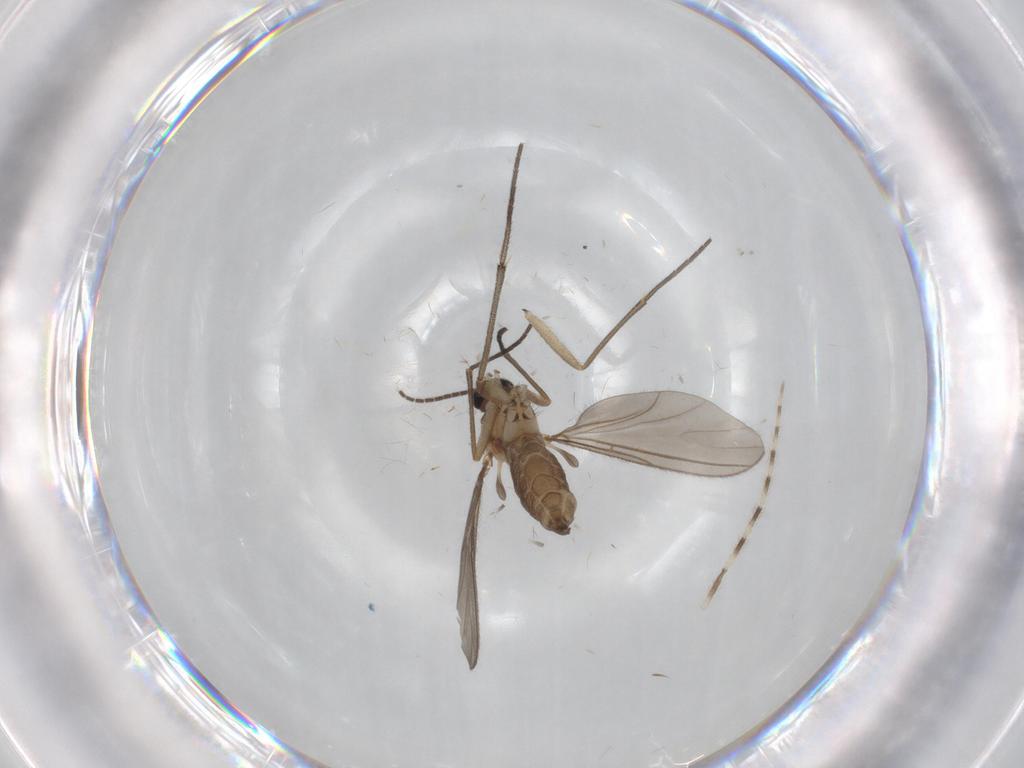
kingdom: Animalia
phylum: Arthropoda
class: Insecta
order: Diptera
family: Sciaridae
